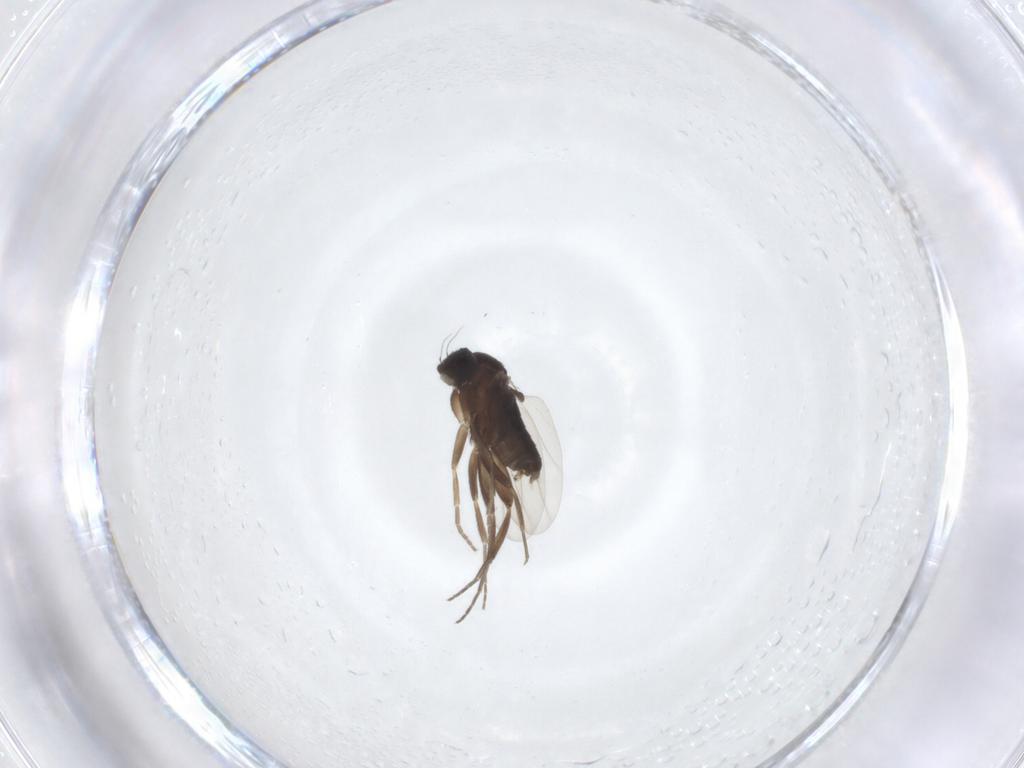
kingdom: Animalia
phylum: Arthropoda
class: Insecta
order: Diptera
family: Phoridae
